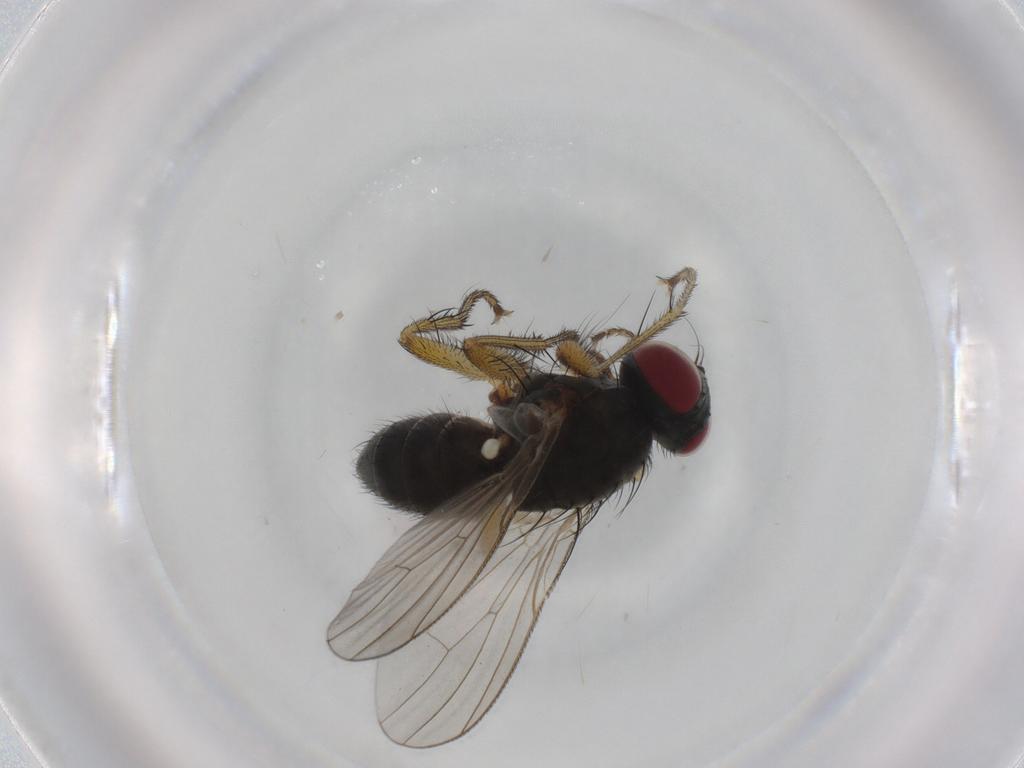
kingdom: Animalia
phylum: Arthropoda
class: Insecta
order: Diptera
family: Muscidae
